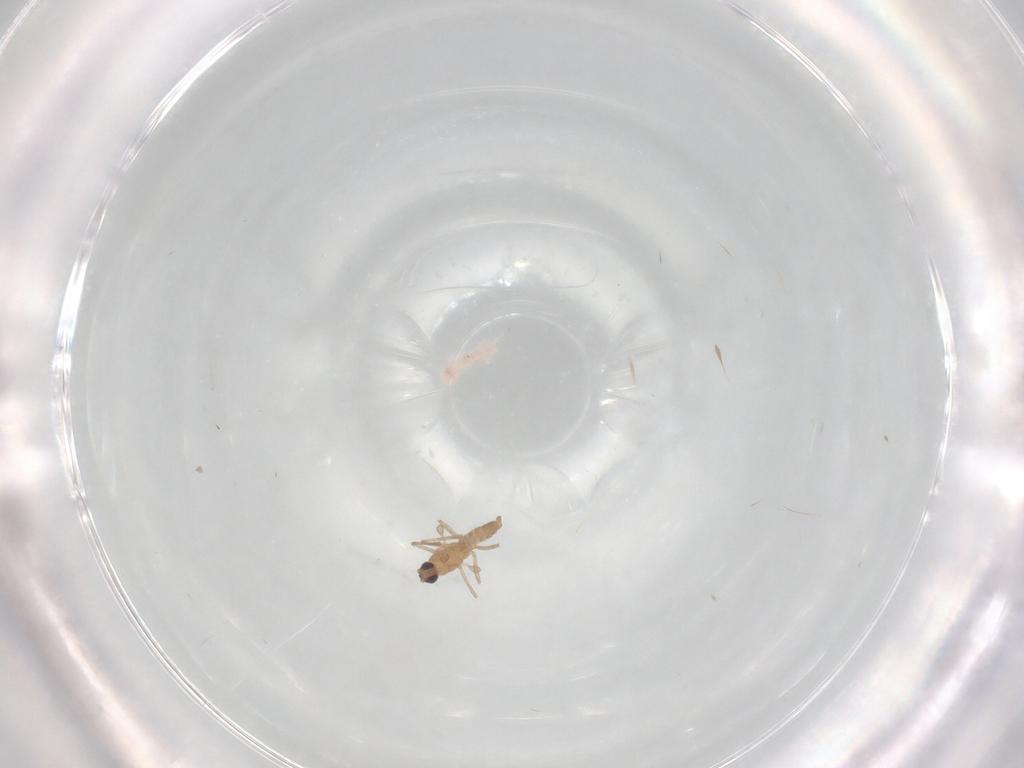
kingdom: Animalia
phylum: Arthropoda
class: Insecta
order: Diptera
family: Cecidomyiidae
